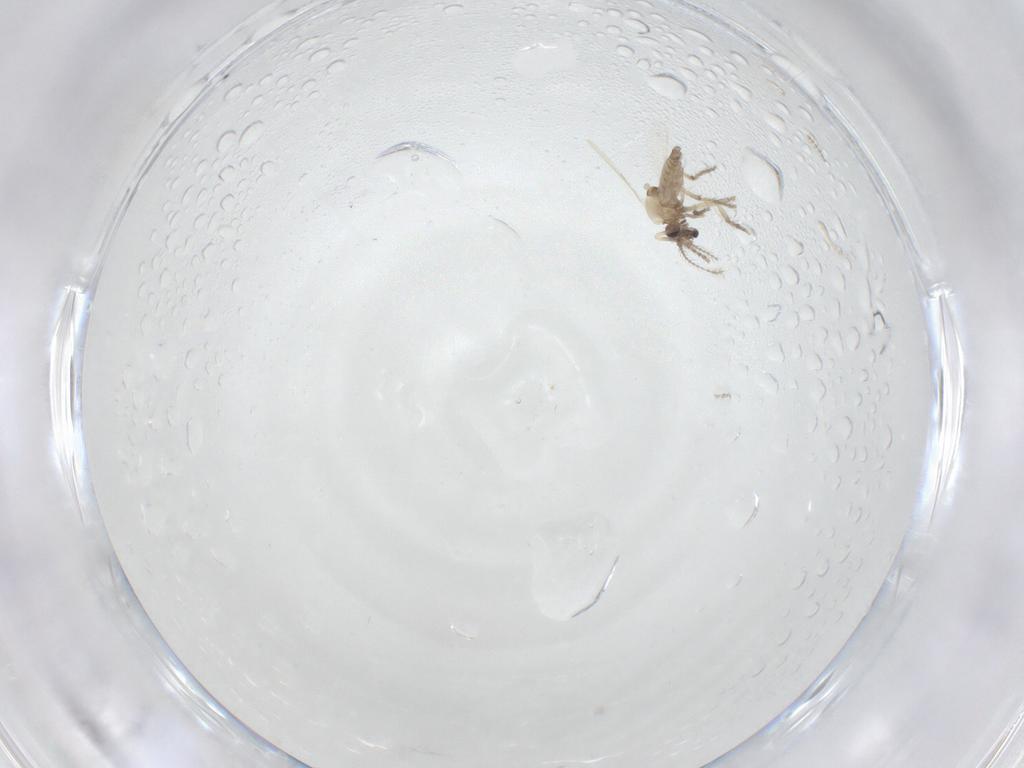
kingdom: Animalia
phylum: Arthropoda
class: Insecta
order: Diptera
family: Ceratopogonidae
